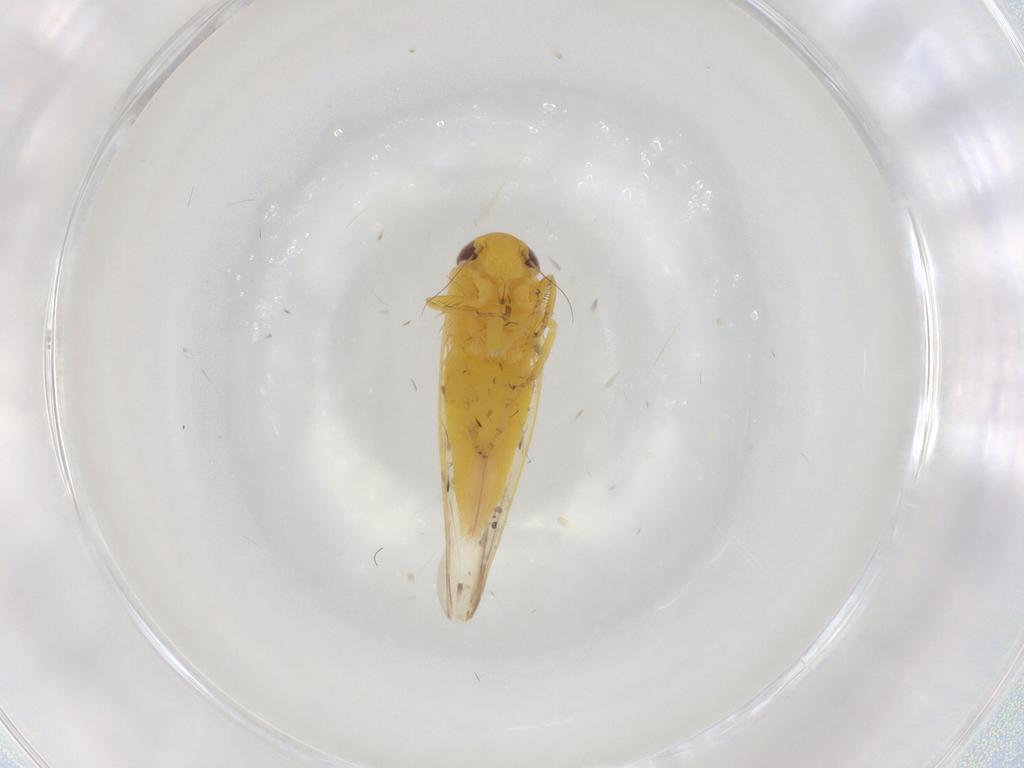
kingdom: Animalia
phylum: Arthropoda
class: Insecta
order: Hemiptera
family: Cicadellidae
